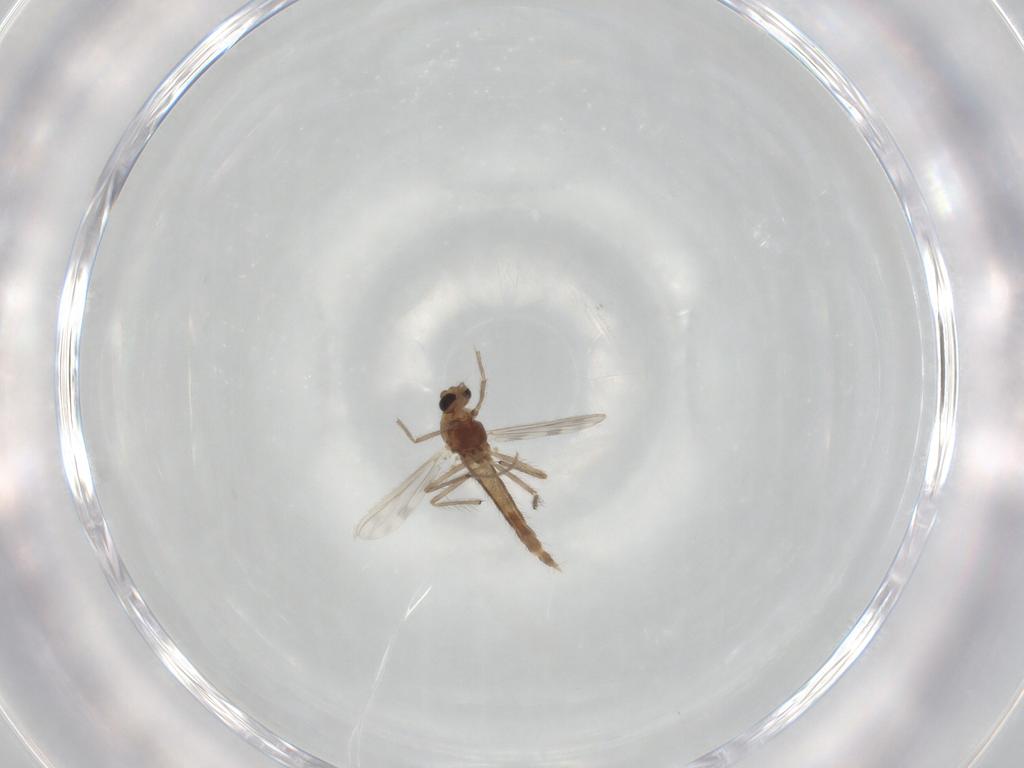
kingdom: Animalia
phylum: Arthropoda
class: Insecta
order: Diptera
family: Chironomidae
